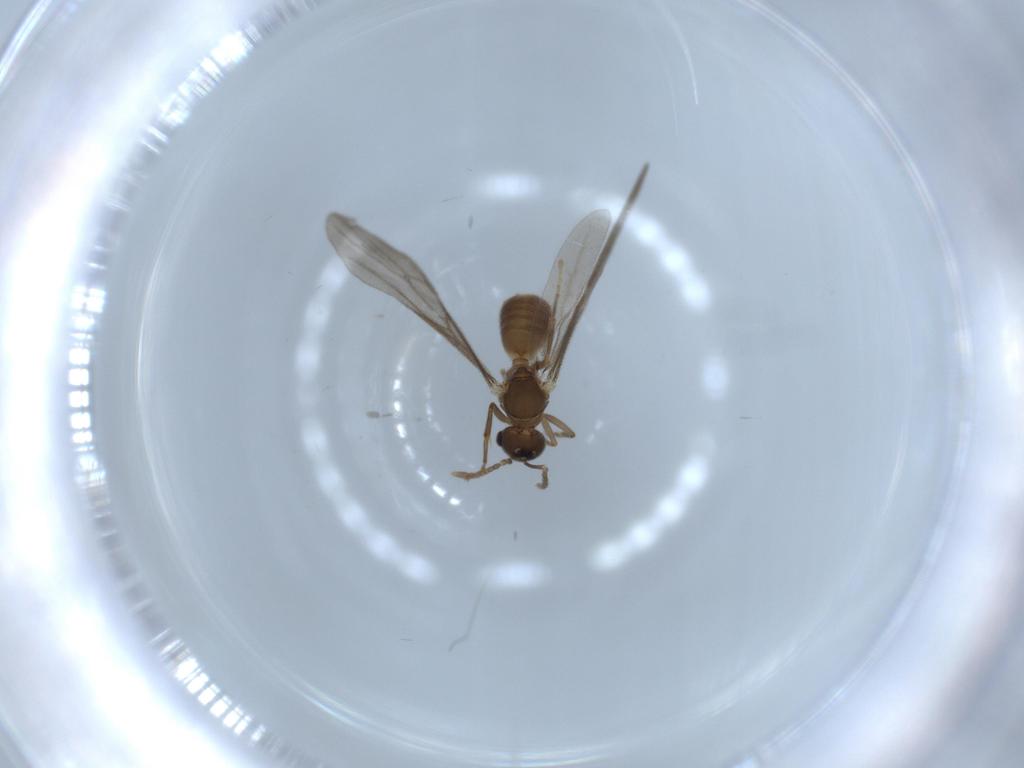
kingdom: Animalia
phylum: Arthropoda
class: Insecta
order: Hymenoptera
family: Formicidae
